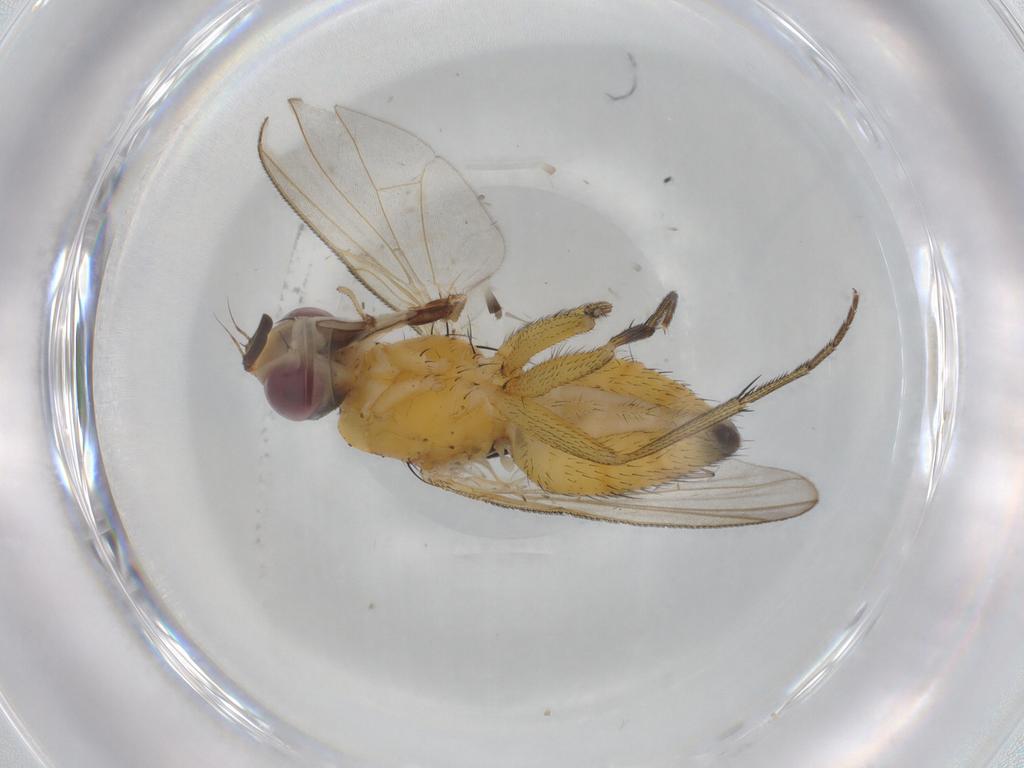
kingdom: Animalia
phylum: Arthropoda
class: Insecta
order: Diptera
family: Muscidae
